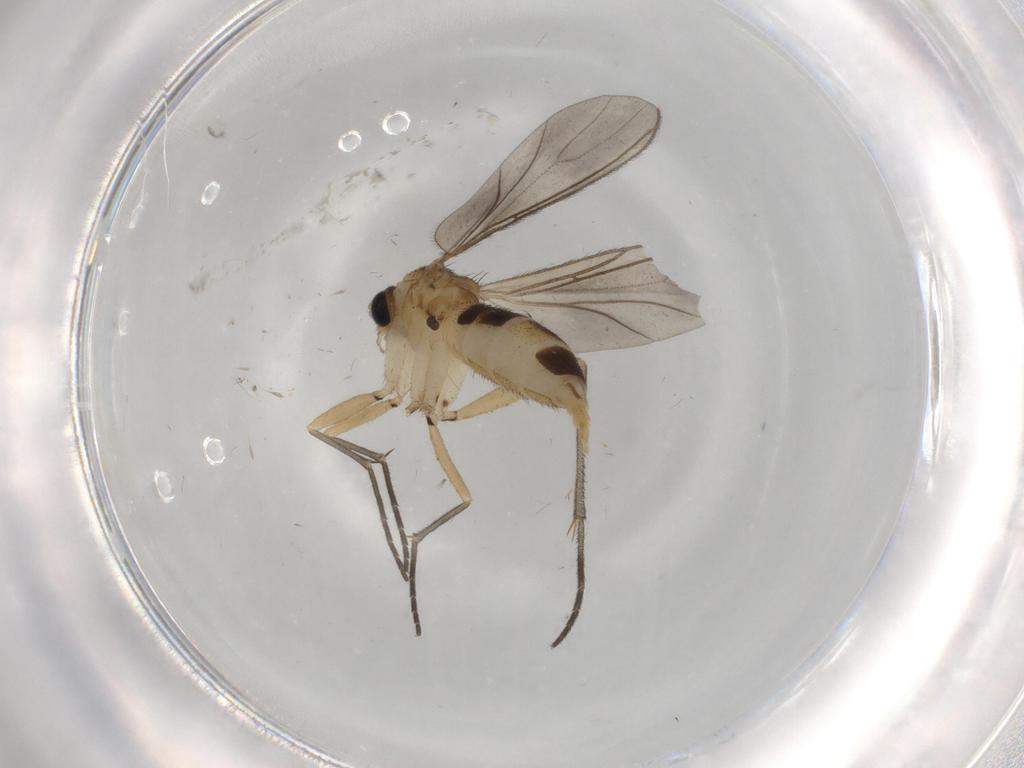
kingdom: Animalia
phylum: Arthropoda
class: Insecta
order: Diptera
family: Sciaridae
